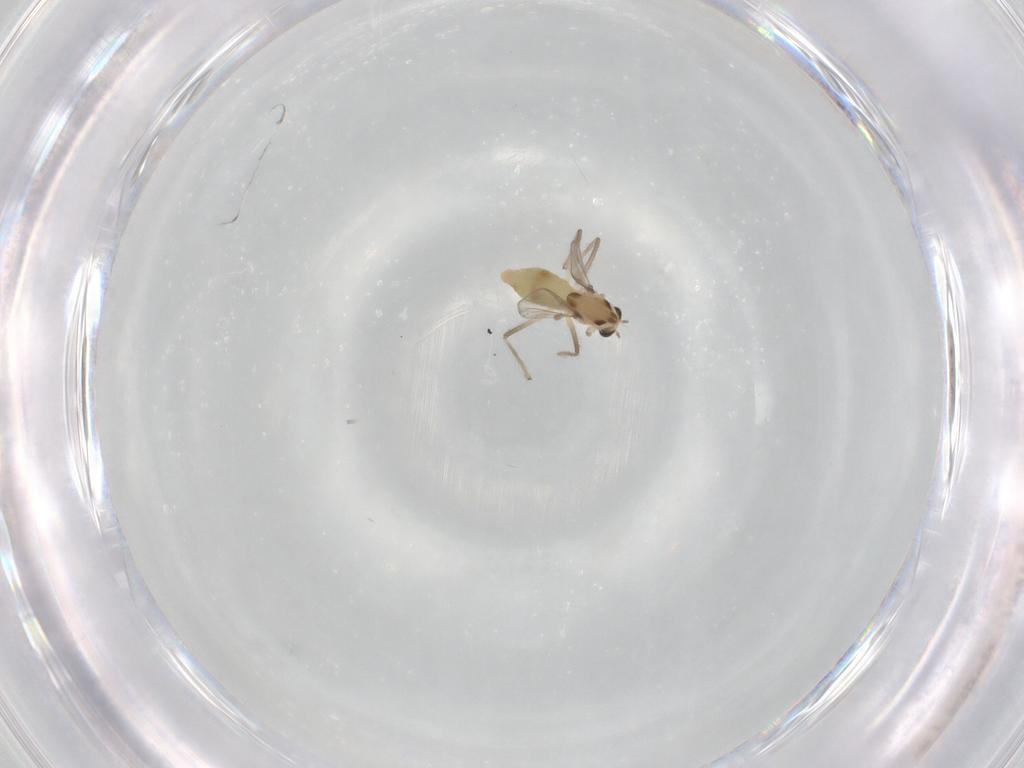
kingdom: Animalia
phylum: Arthropoda
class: Insecta
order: Diptera
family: Chironomidae
